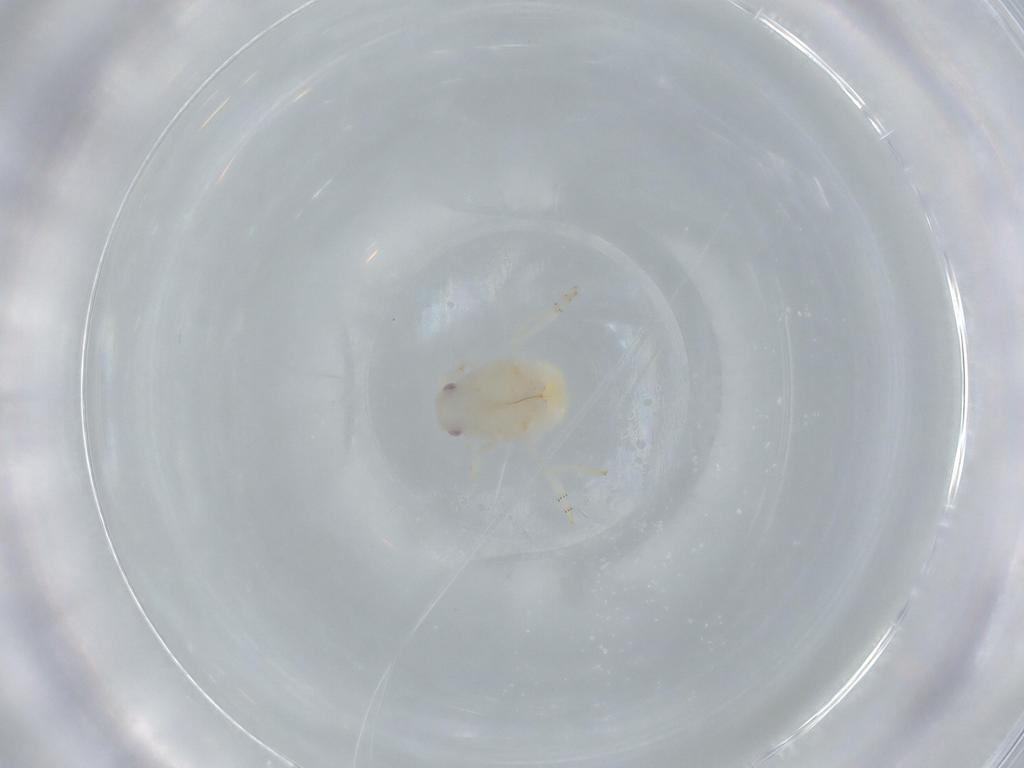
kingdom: Animalia
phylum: Arthropoda
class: Insecta
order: Hemiptera
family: Flatidae
